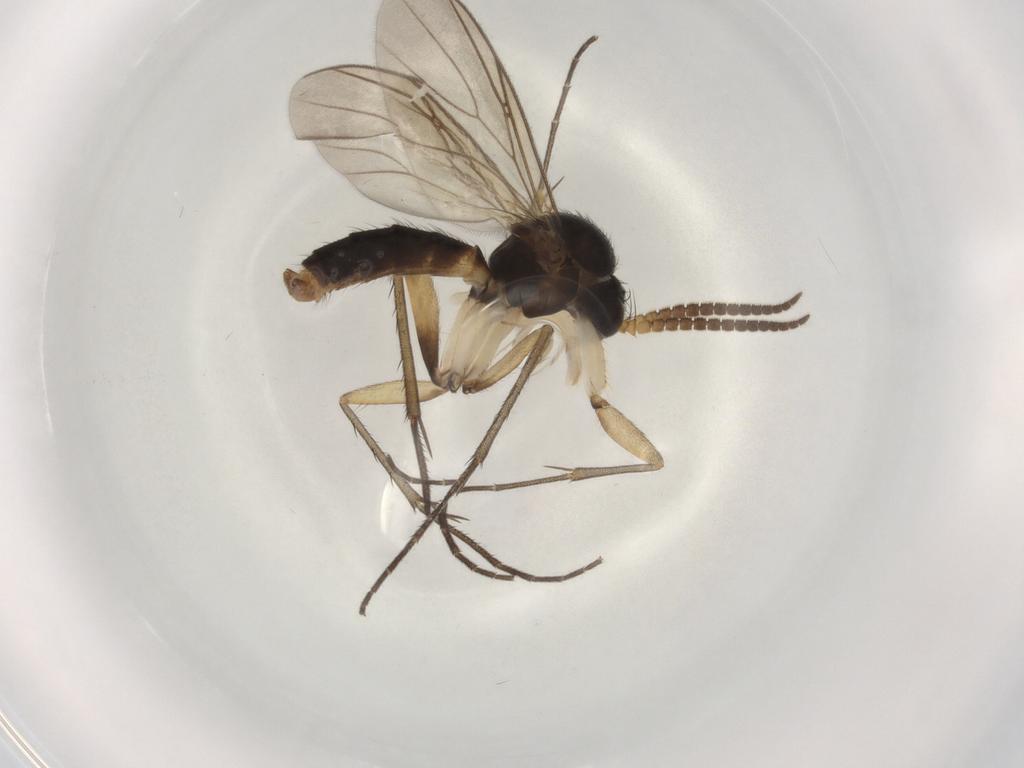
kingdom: Animalia
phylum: Arthropoda
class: Insecta
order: Diptera
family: Mycetophilidae
